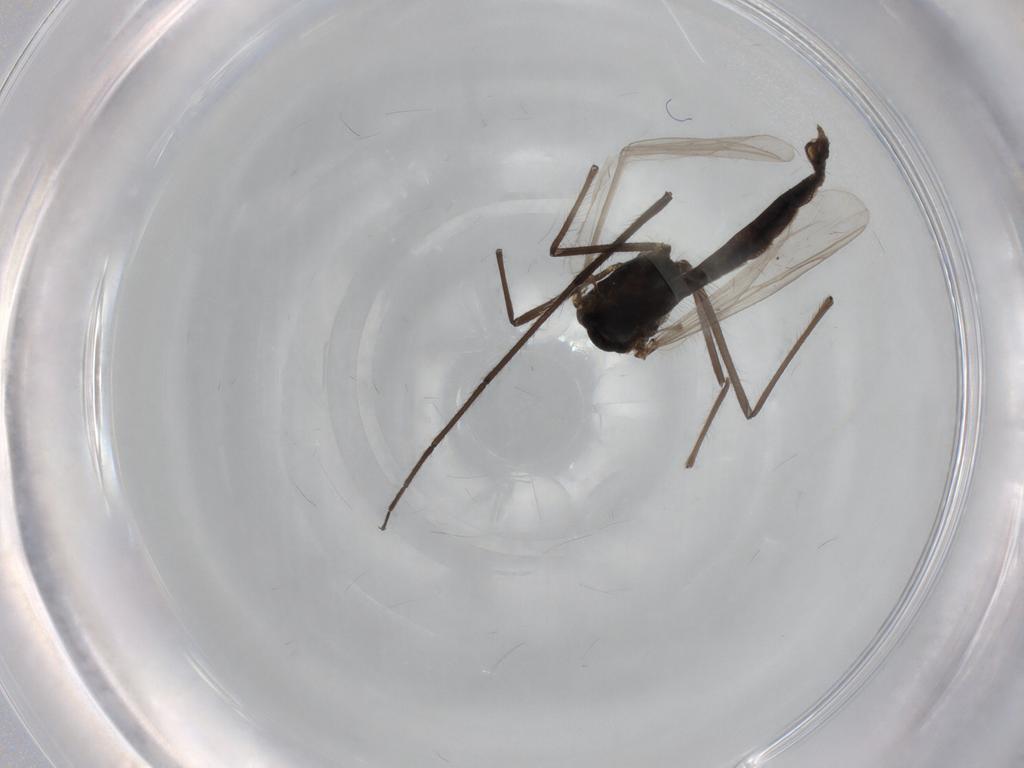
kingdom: Animalia
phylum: Arthropoda
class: Insecta
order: Diptera
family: Chironomidae
